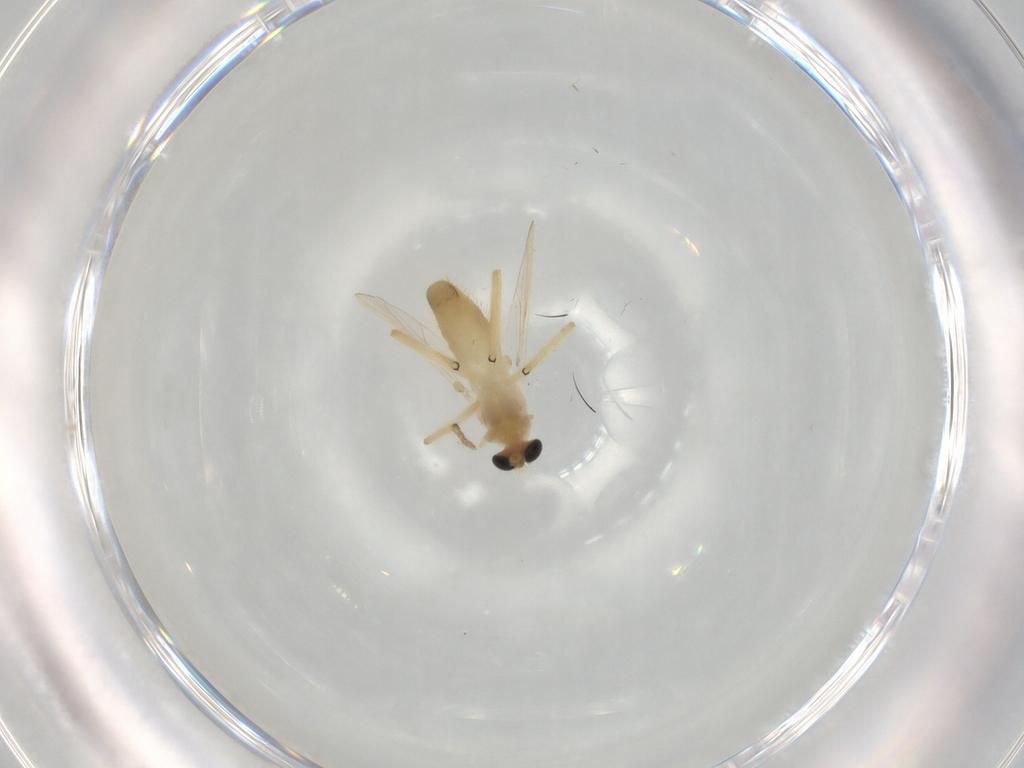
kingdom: Animalia
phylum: Arthropoda
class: Insecta
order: Diptera
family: Chironomidae
